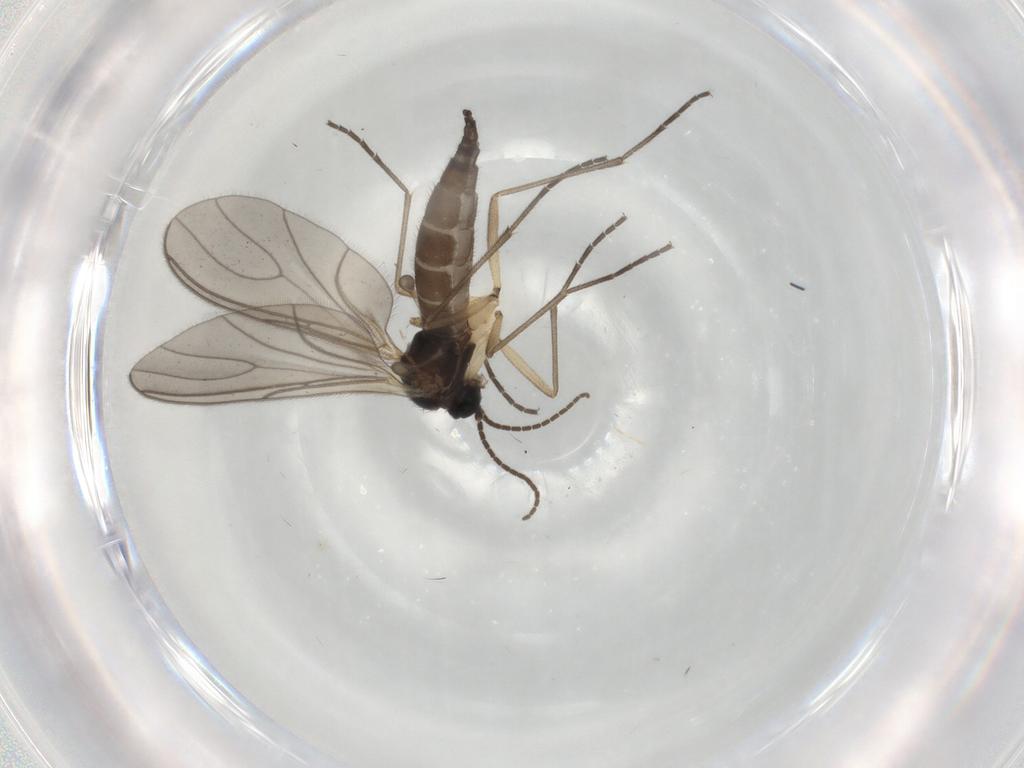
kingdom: Animalia
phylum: Arthropoda
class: Insecta
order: Diptera
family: Sciaridae
